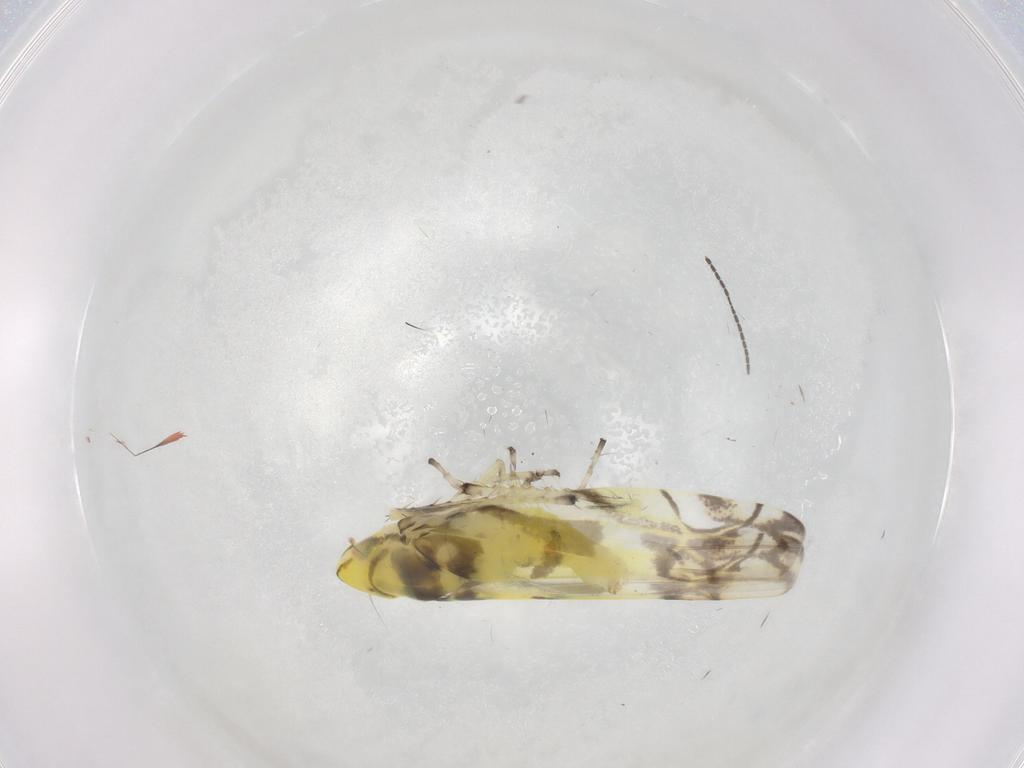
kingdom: Animalia
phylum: Arthropoda
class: Insecta
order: Hemiptera
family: Cicadellidae
